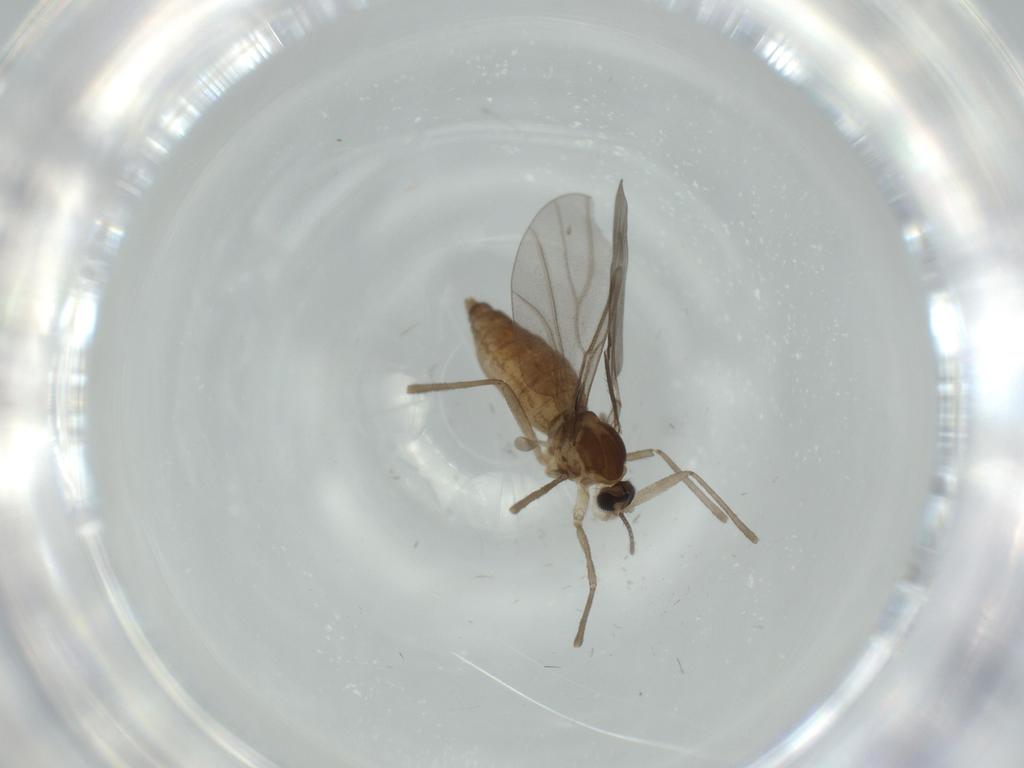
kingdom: Animalia
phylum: Arthropoda
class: Insecta
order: Diptera
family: Cecidomyiidae
